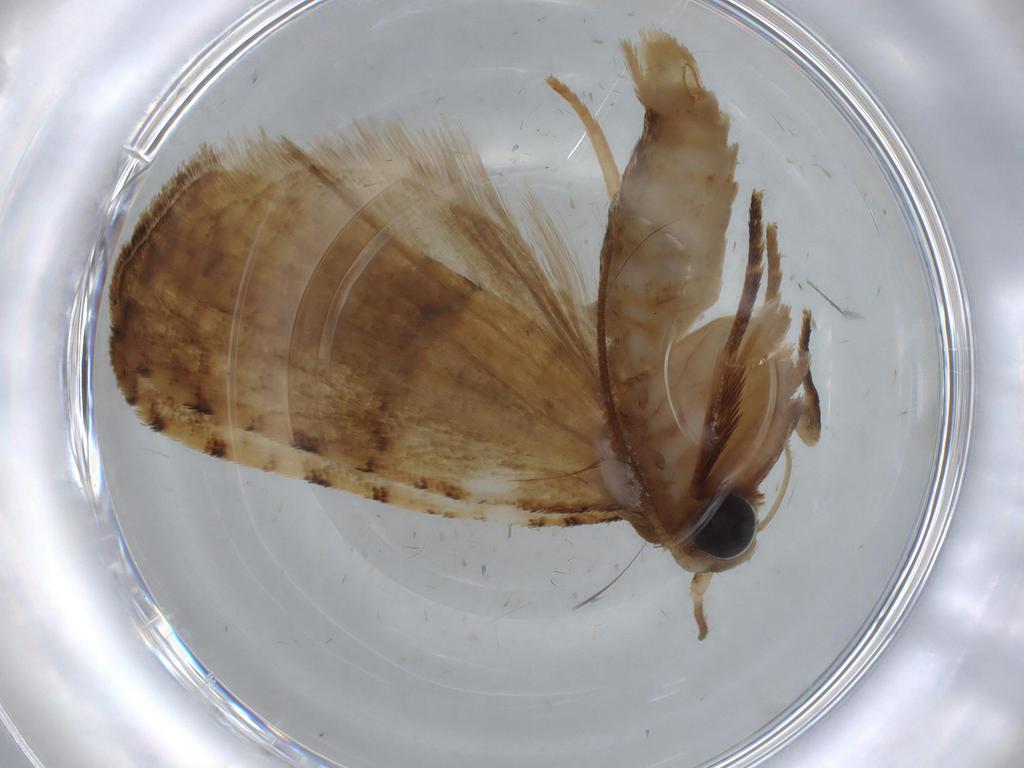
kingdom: Animalia
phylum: Arthropoda
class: Insecta
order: Lepidoptera
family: Tineidae
